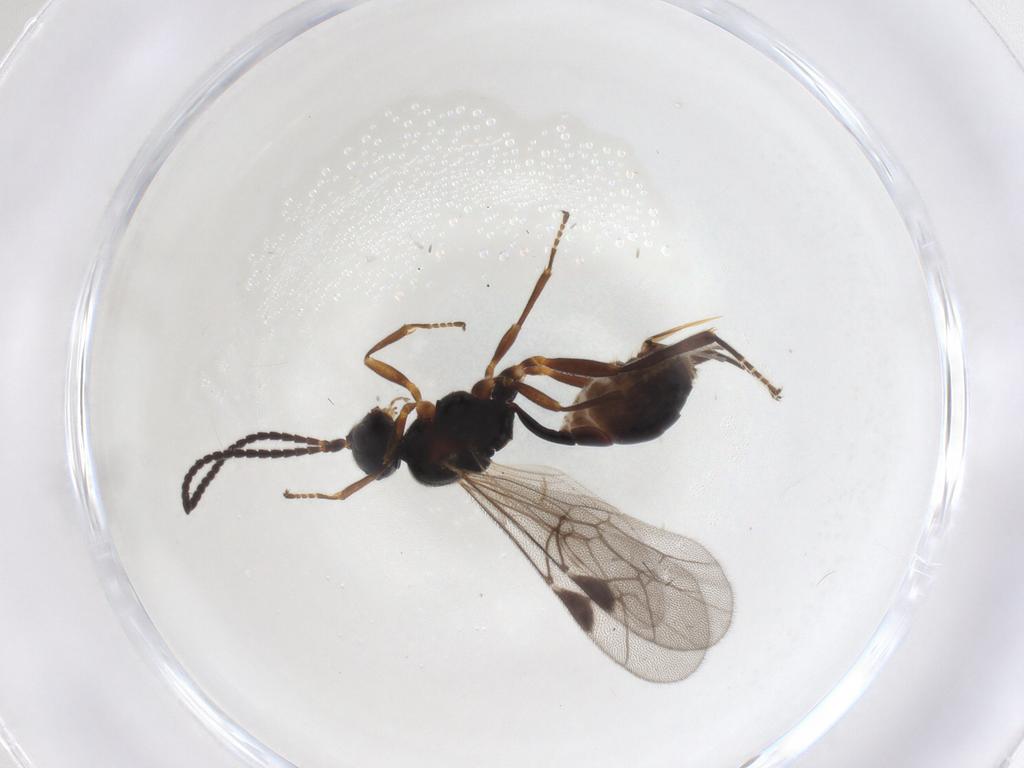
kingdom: Animalia
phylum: Arthropoda
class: Insecta
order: Hymenoptera
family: Ichneumonidae
